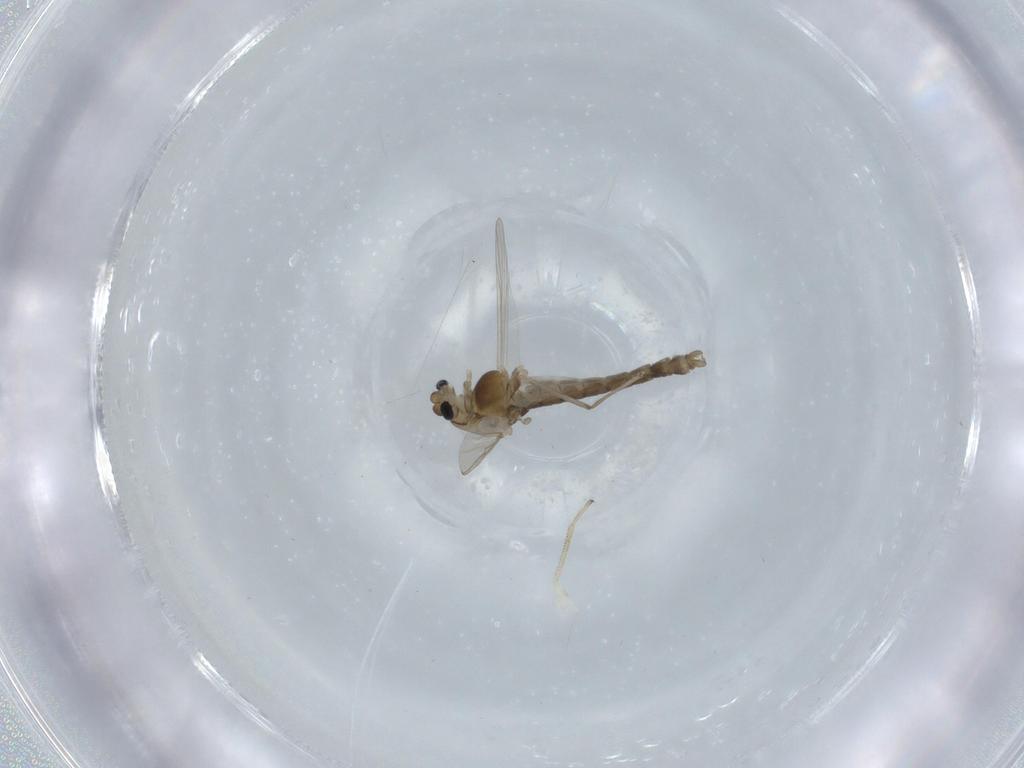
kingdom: Animalia
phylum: Arthropoda
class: Insecta
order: Diptera
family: Chironomidae
